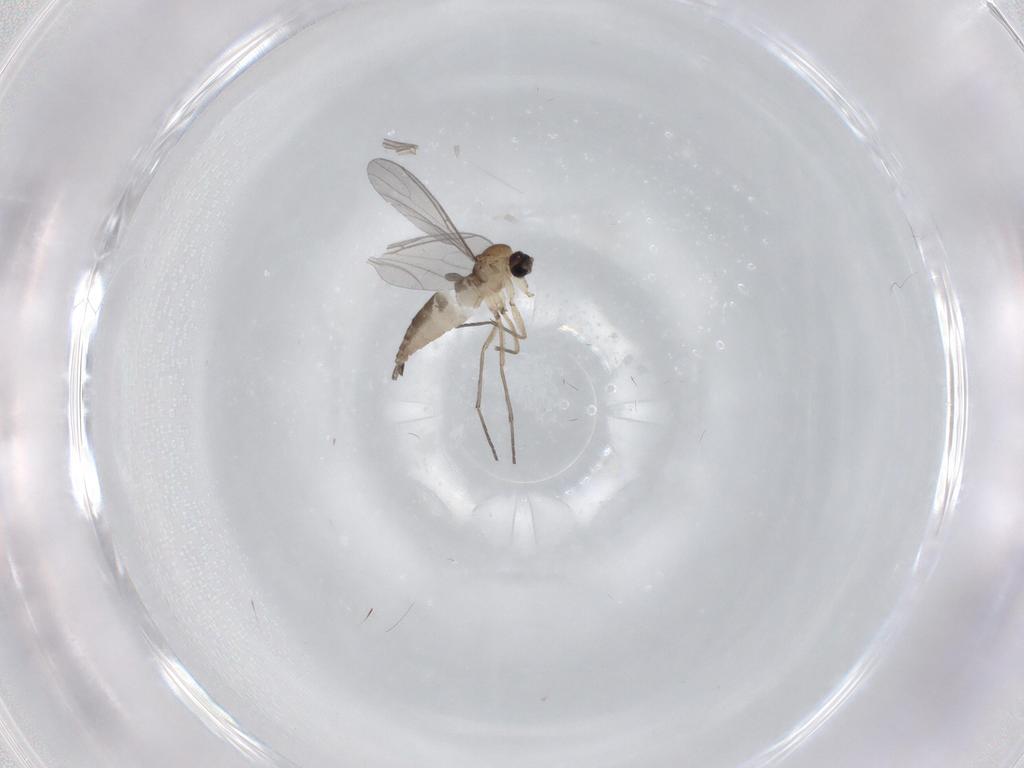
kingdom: Animalia
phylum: Arthropoda
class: Insecta
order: Diptera
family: Sciaridae
